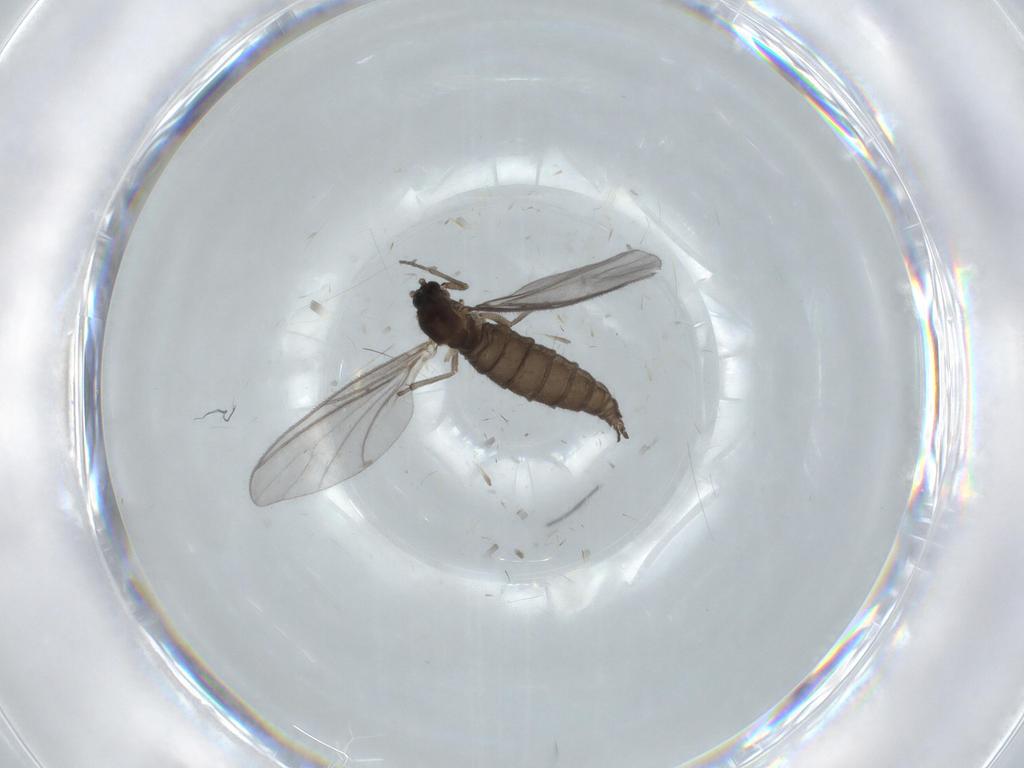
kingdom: Animalia
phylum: Arthropoda
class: Insecta
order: Diptera
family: Sciaridae
